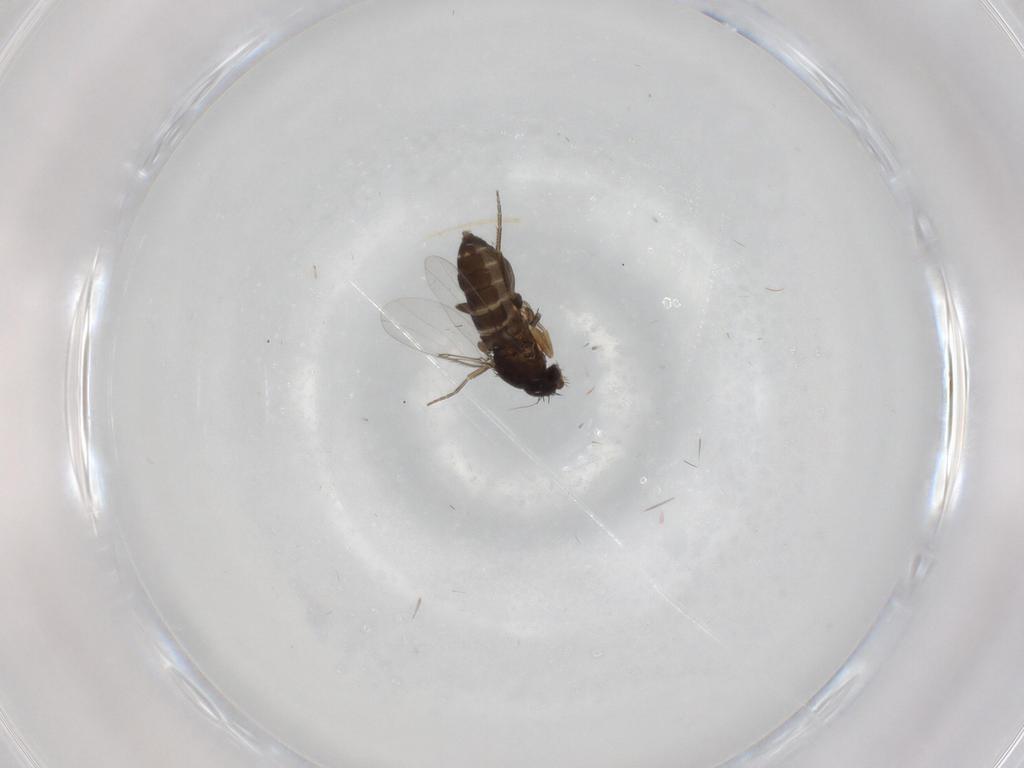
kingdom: Animalia
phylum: Arthropoda
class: Insecta
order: Diptera
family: Phoridae
